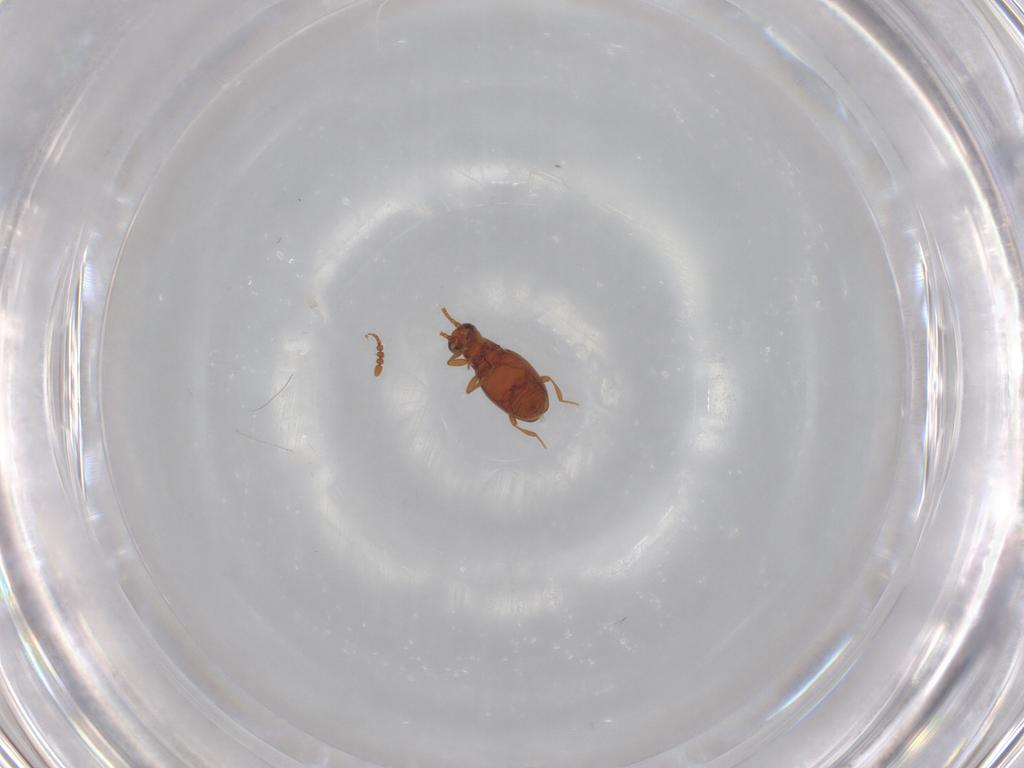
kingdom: Animalia
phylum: Arthropoda
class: Insecta
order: Coleoptera
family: Staphylinidae
